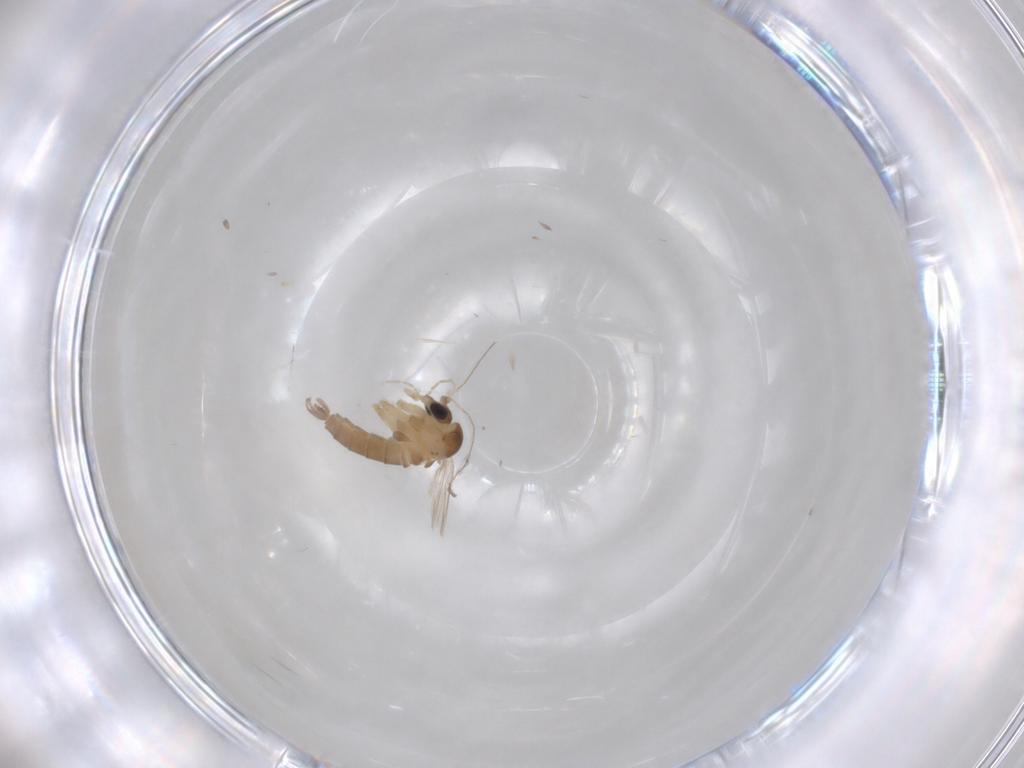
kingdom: Animalia
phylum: Arthropoda
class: Insecta
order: Diptera
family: Psychodidae
